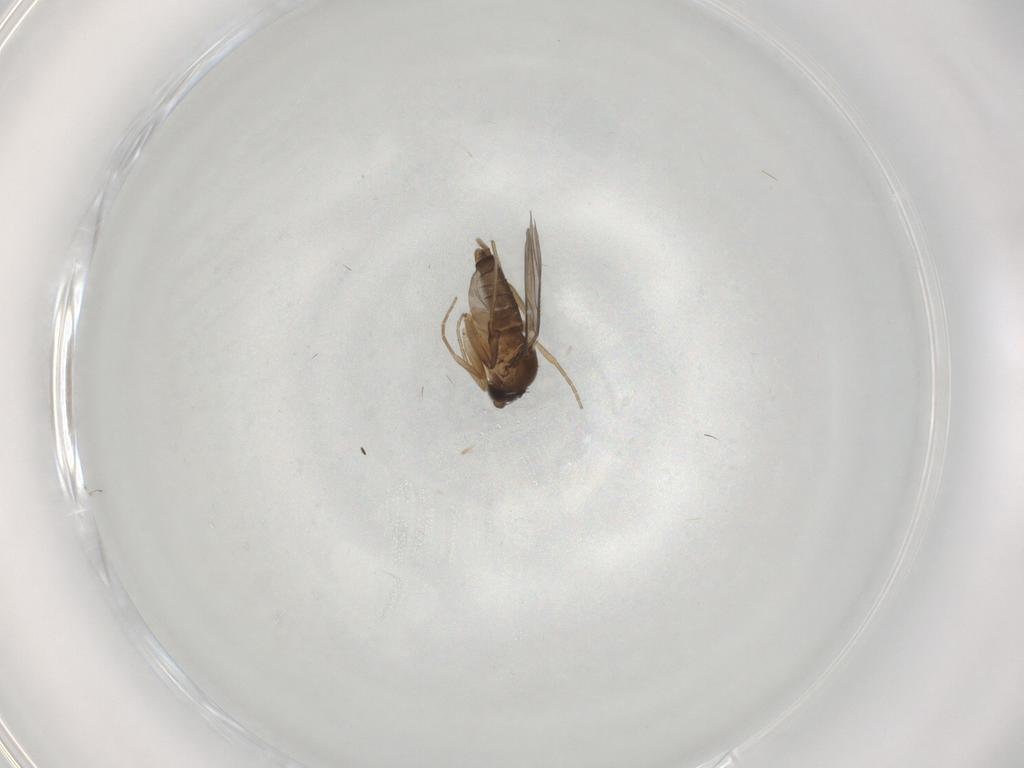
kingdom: Animalia
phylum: Arthropoda
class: Insecta
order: Diptera
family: Phoridae
